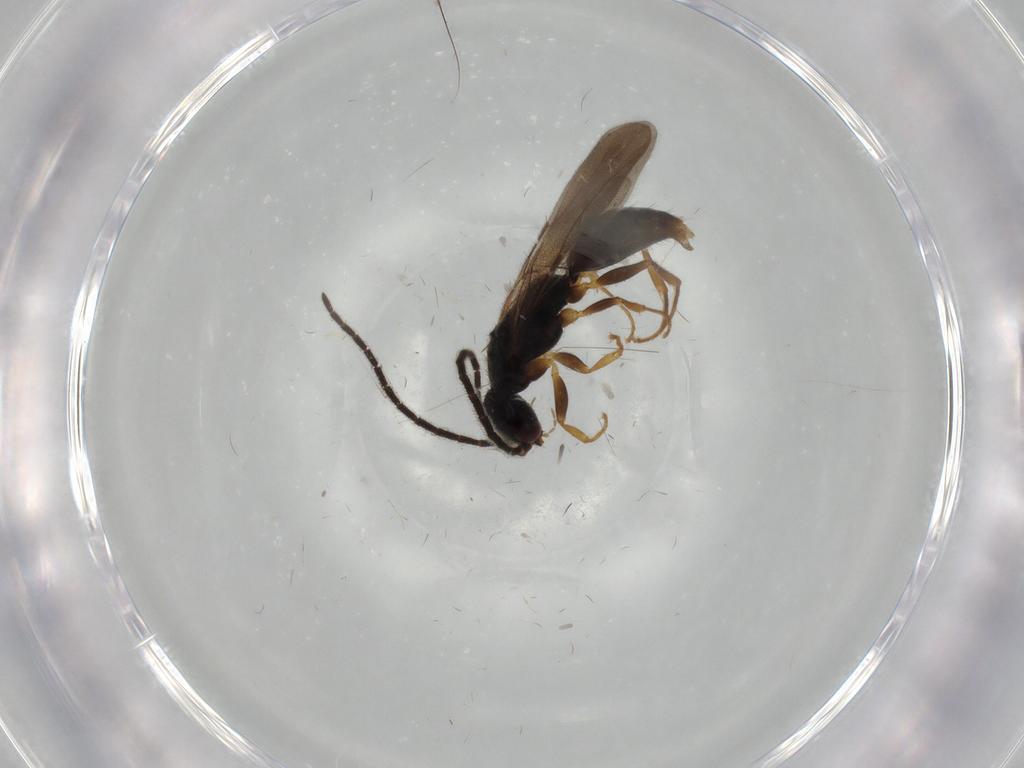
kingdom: Animalia
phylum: Arthropoda
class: Insecta
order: Hymenoptera
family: Bethylidae
